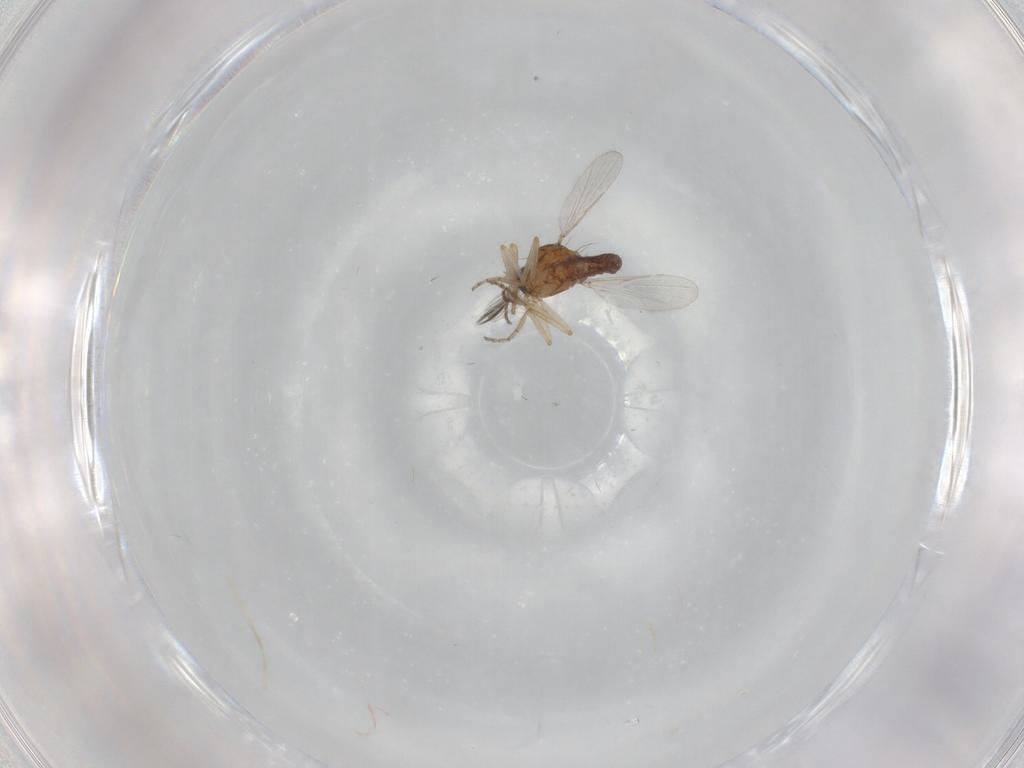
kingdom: Animalia
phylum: Arthropoda
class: Insecta
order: Diptera
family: Ceratopogonidae
